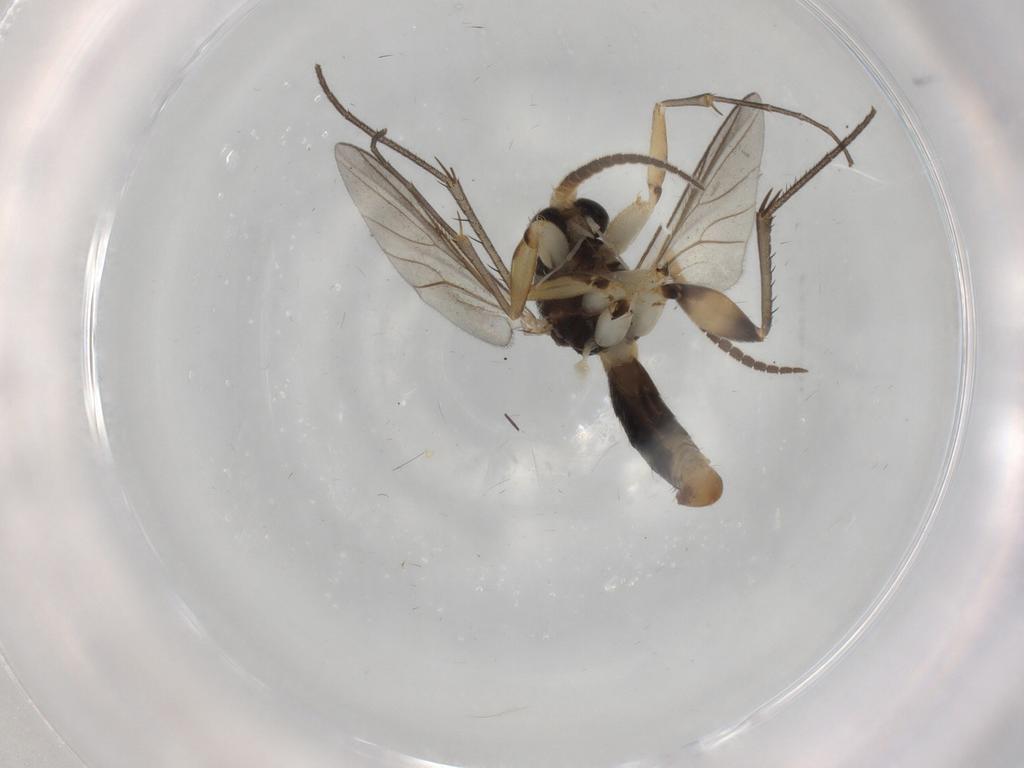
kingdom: Animalia
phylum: Arthropoda
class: Insecta
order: Diptera
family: Ceratopogonidae
